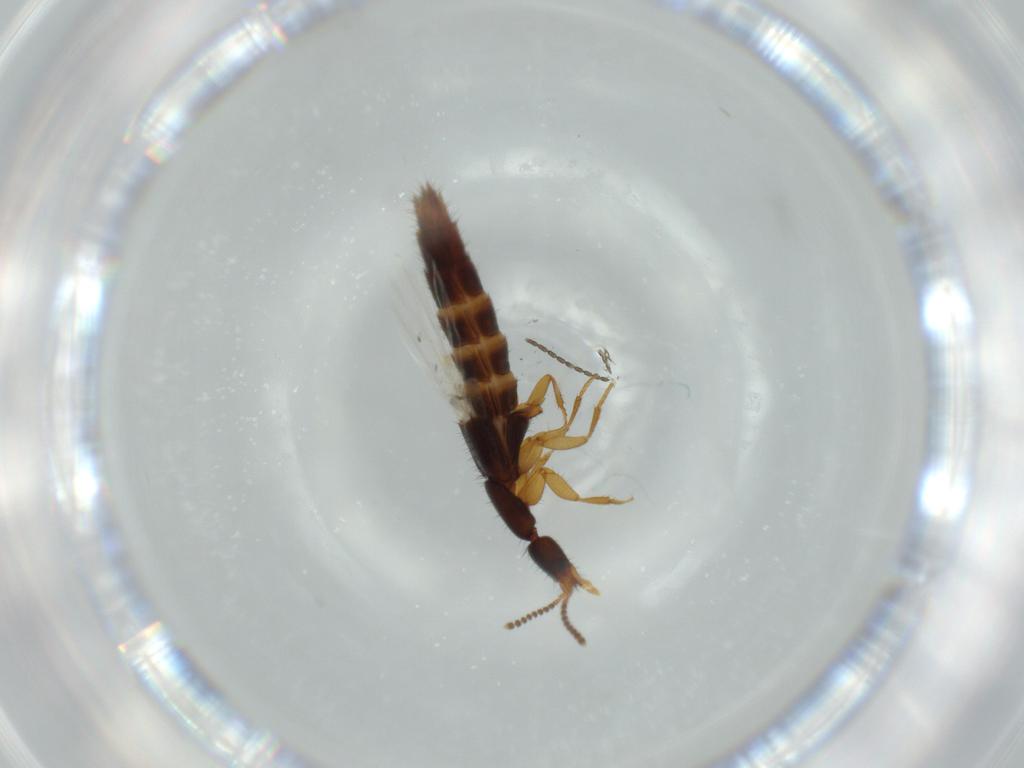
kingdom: Animalia
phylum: Arthropoda
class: Insecta
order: Coleoptera
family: Staphylinidae
